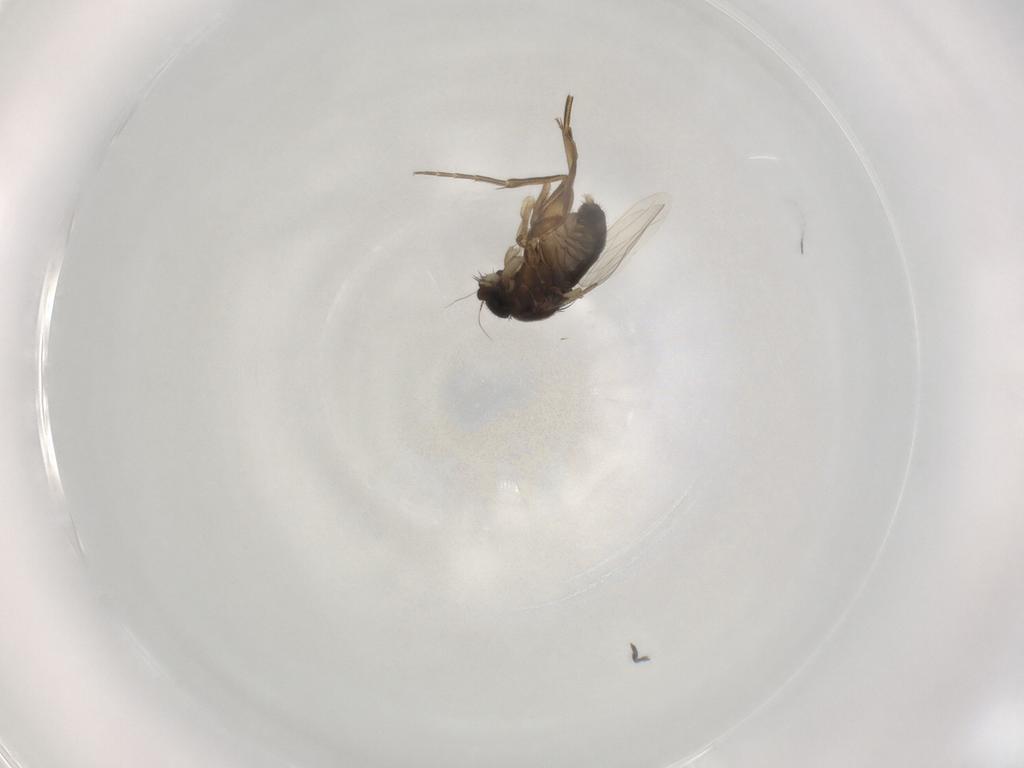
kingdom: Animalia
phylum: Arthropoda
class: Insecta
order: Diptera
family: Phoridae
